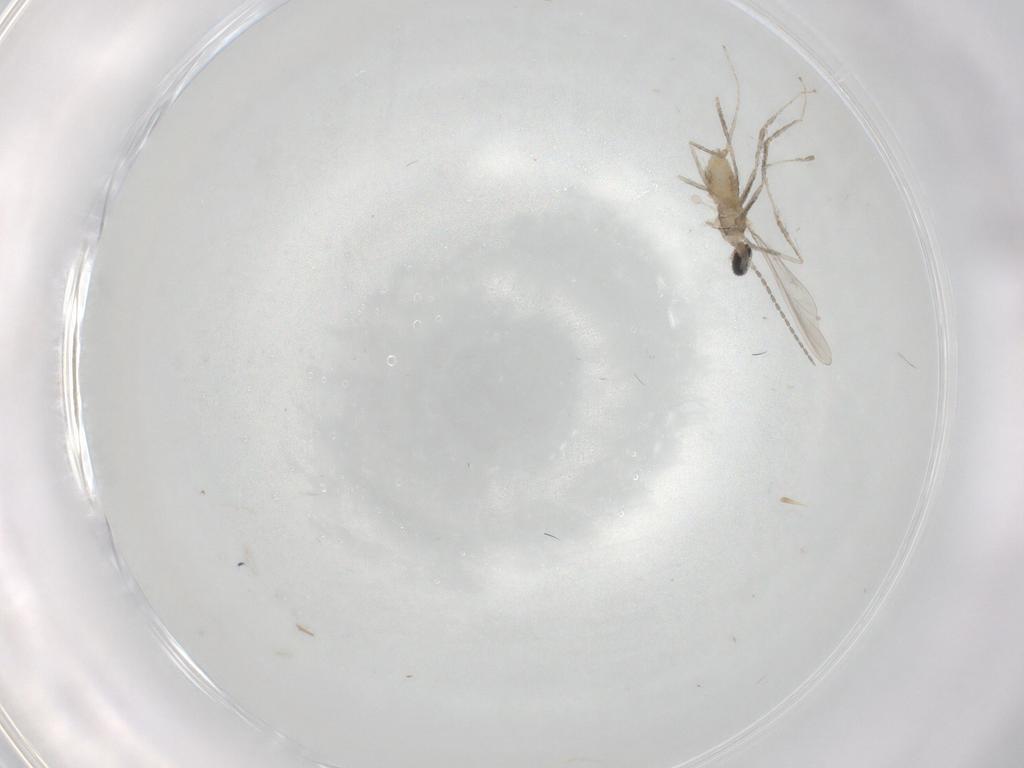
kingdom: Animalia
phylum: Arthropoda
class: Insecta
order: Diptera
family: Cecidomyiidae
